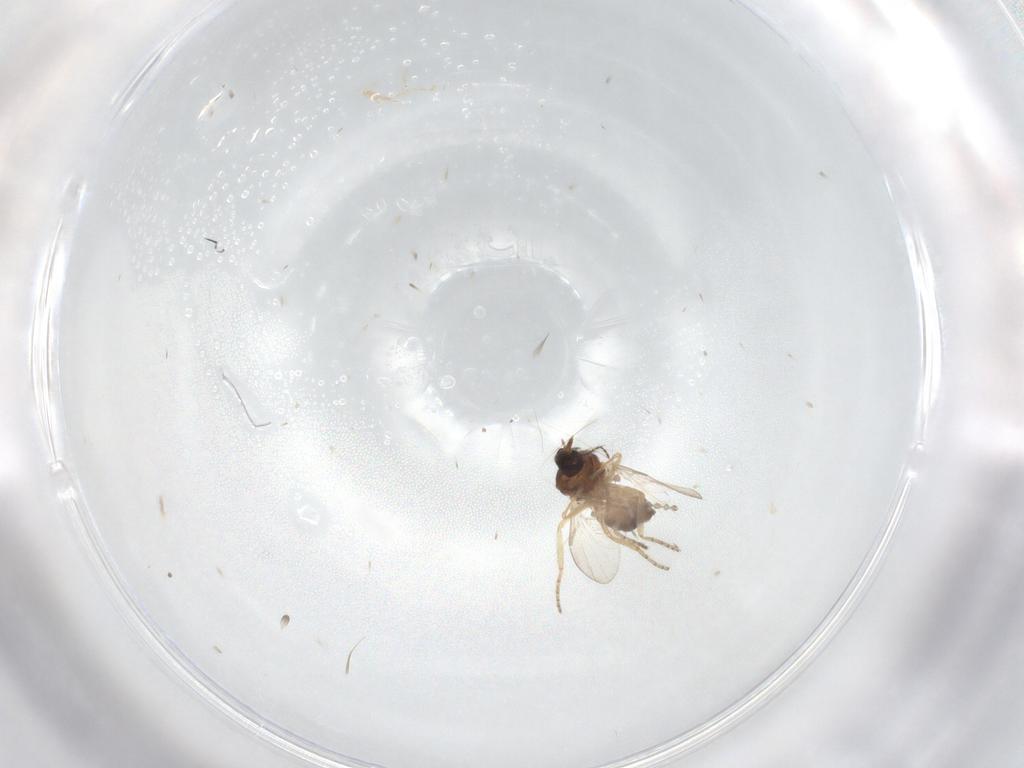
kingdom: Animalia
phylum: Arthropoda
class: Insecta
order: Diptera
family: Ceratopogonidae
